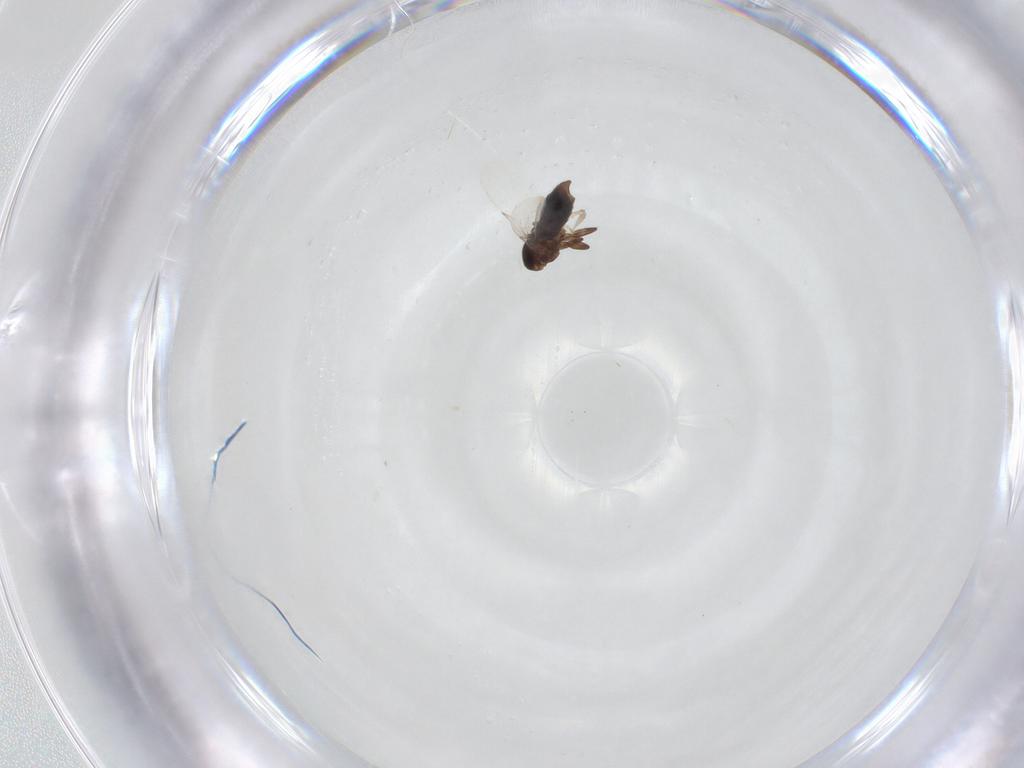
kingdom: Animalia
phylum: Arthropoda
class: Insecta
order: Diptera
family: Scatopsidae
